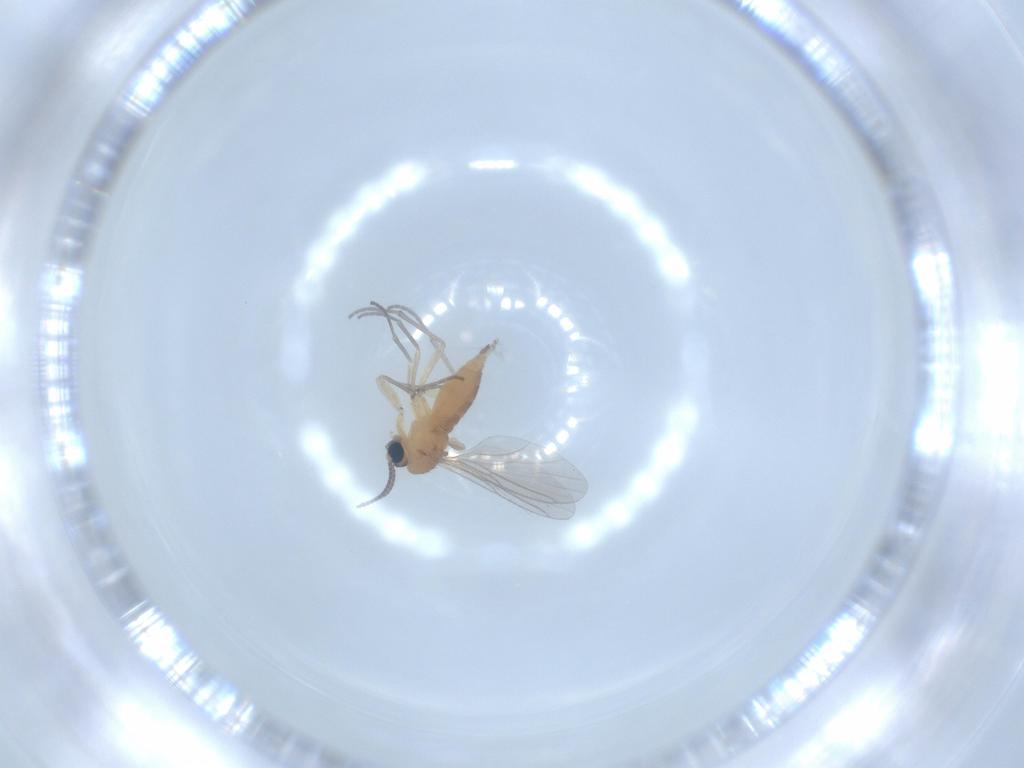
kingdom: Animalia
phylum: Arthropoda
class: Insecta
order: Diptera
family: Sciaridae
